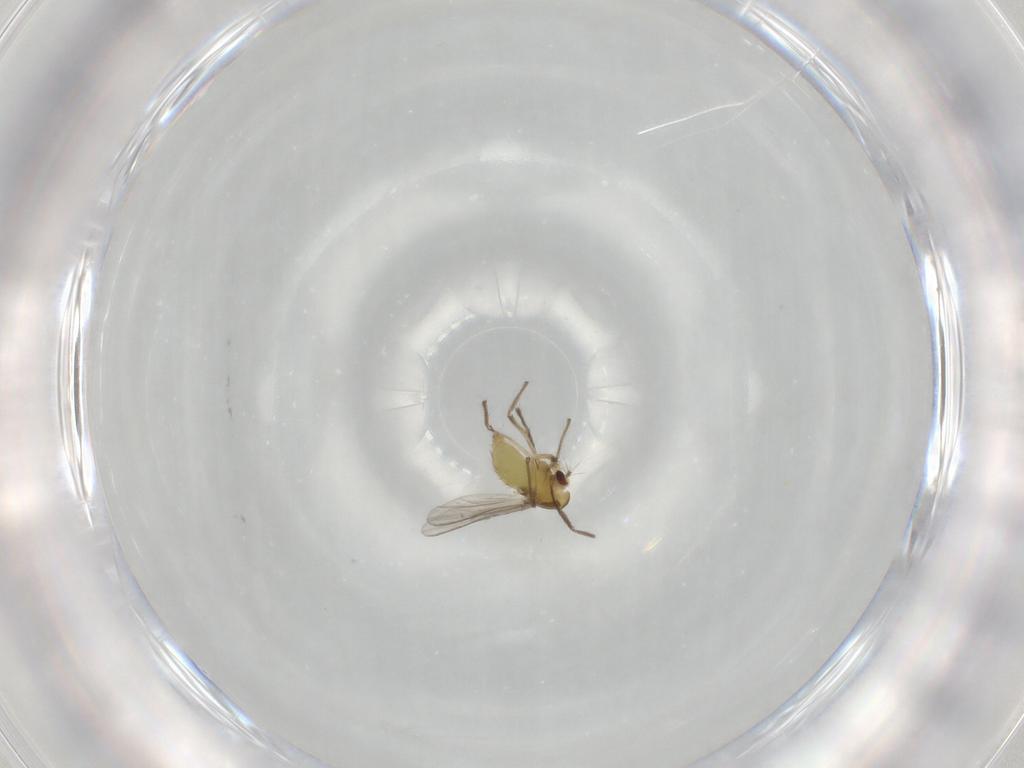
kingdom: Animalia
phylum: Arthropoda
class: Insecta
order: Diptera
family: Chironomidae
